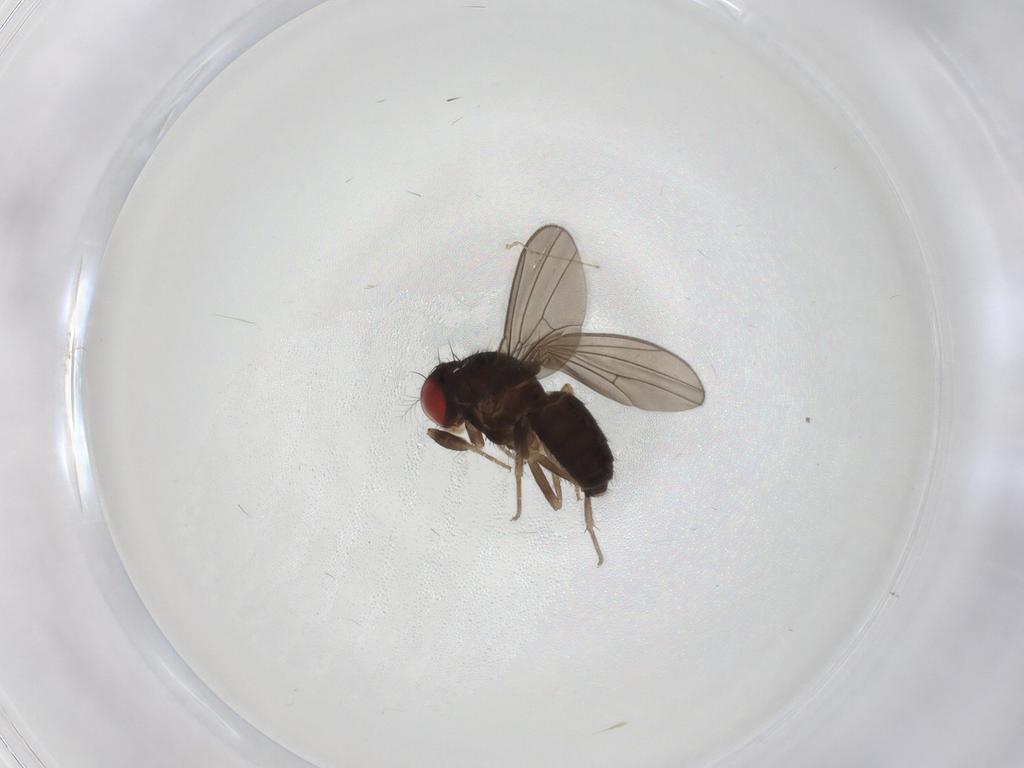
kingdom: Animalia
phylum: Arthropoda
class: Insecta
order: Diptera
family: Drosophilidae
